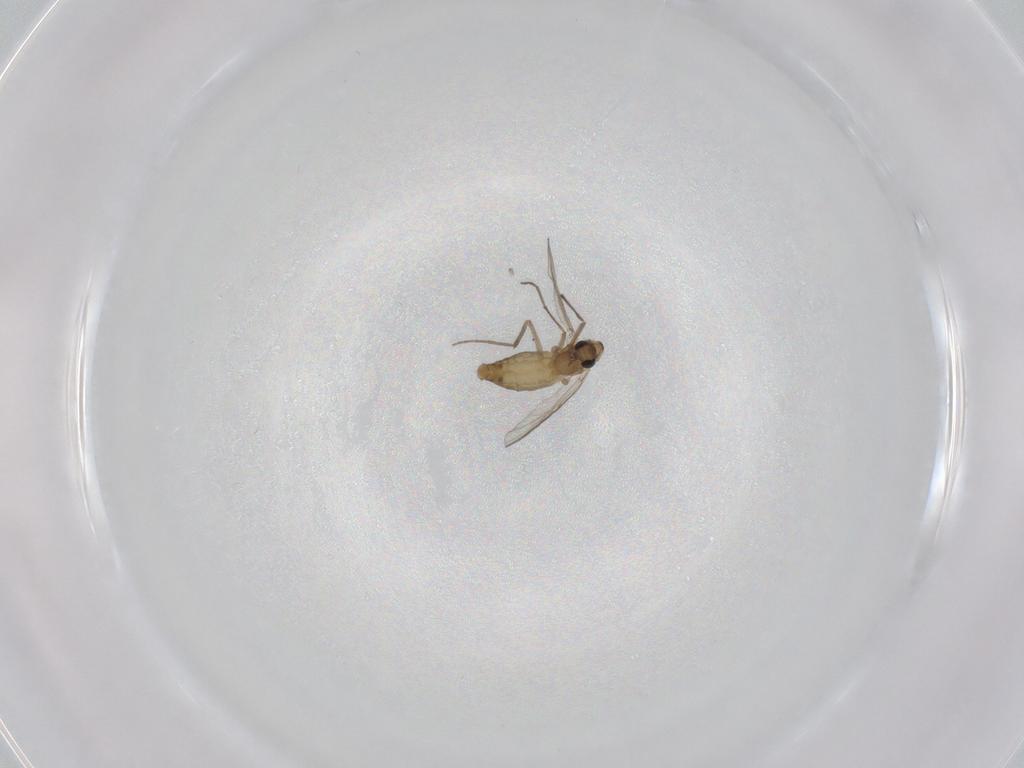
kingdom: Animalia
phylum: Arthropoda
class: Insecta
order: Diptera
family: Chironomidae
